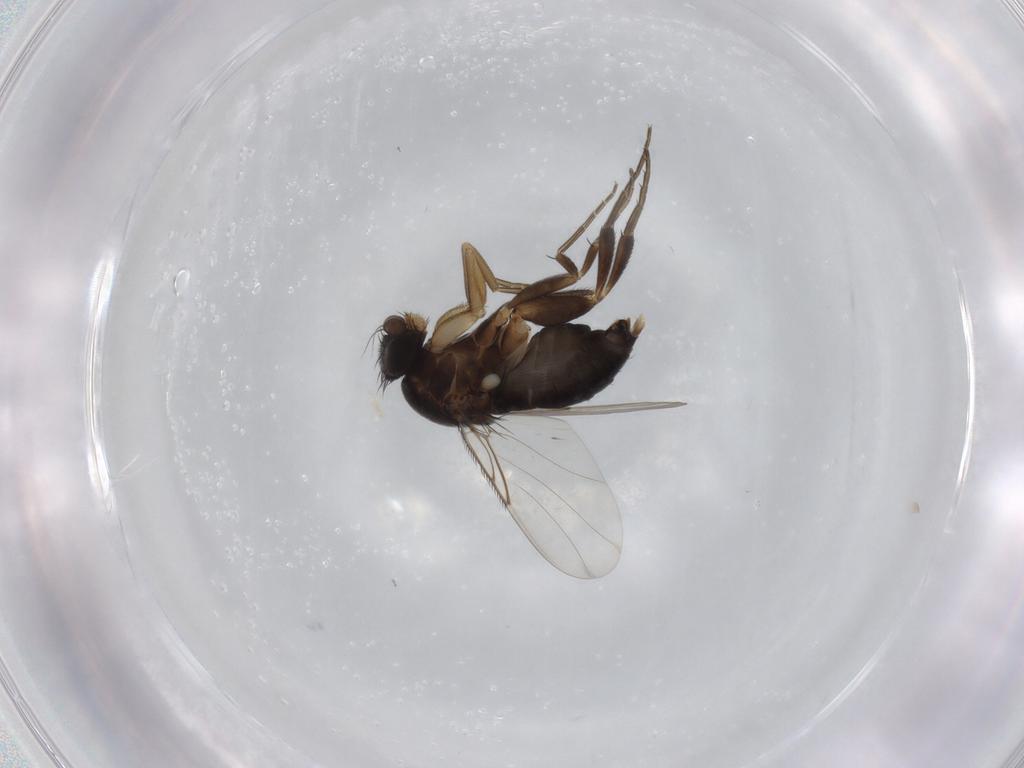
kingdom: Animalia
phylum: Arthropoda
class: Insecta
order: Diptera
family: Phoridae
